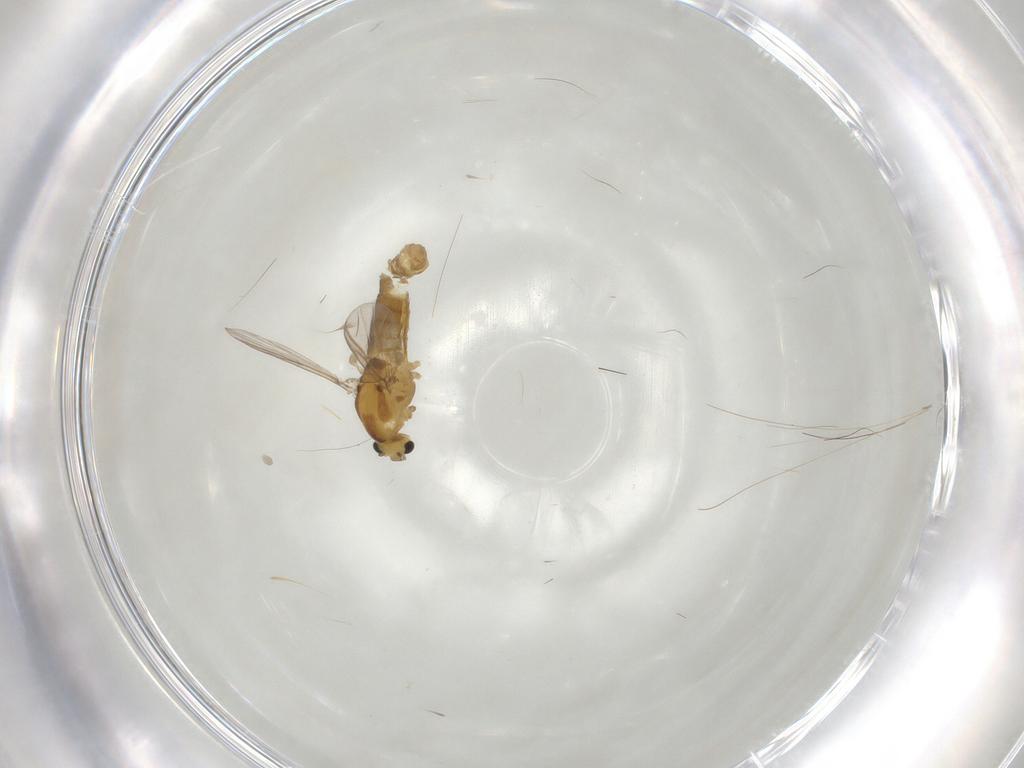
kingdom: Animalia
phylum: Arthropoda
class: Insecta
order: Diptera
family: Chironomidae
